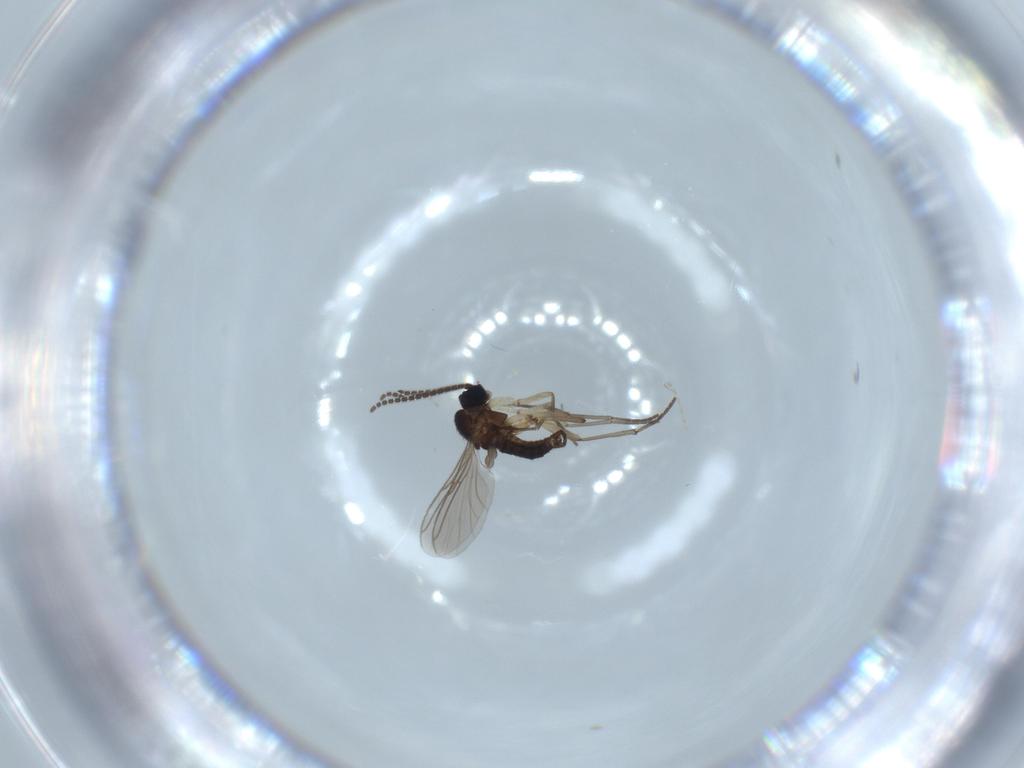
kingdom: Animalia
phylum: Arthropoda
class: Insecta
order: Diptera
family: Sciaridae
